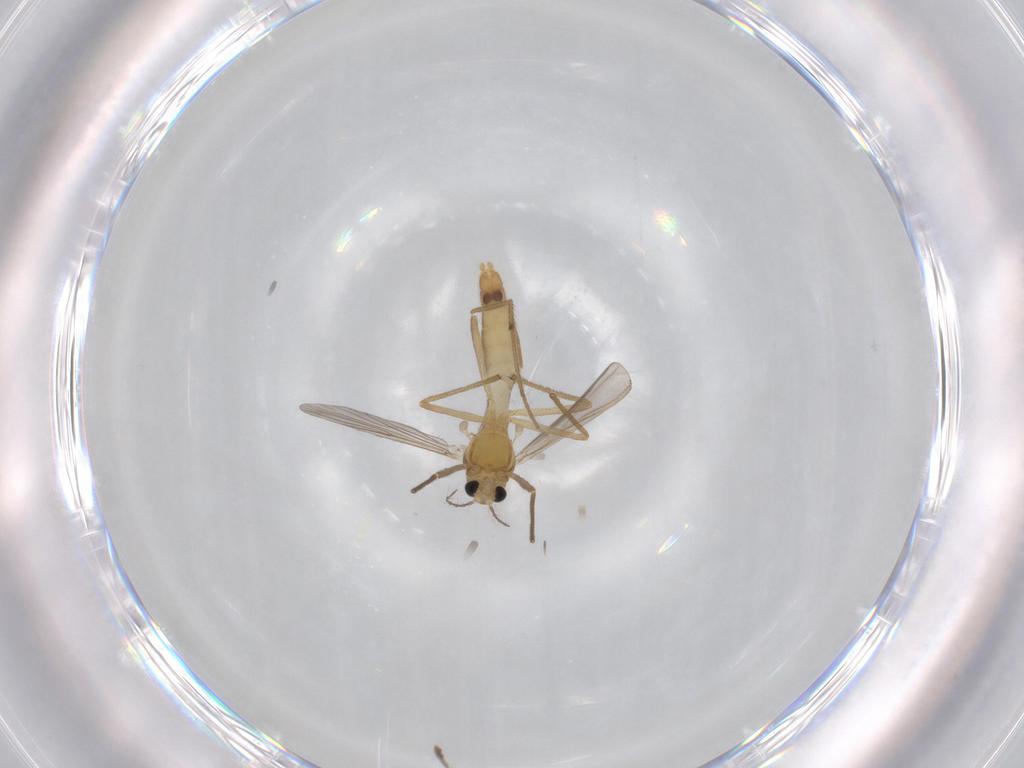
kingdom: Animalia
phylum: Arthropoda
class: Insecta
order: Diptera
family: Chironomidae
